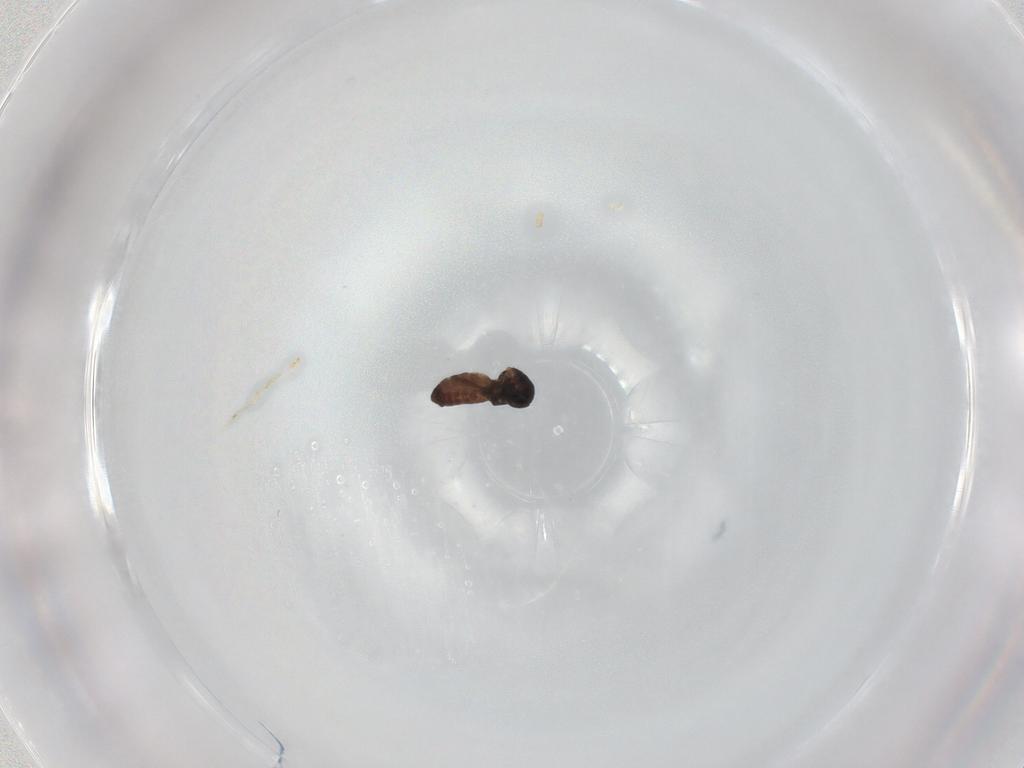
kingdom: Animalia
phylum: Arthropoda
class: Insecta
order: Diptera
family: Ceratopogonidae
